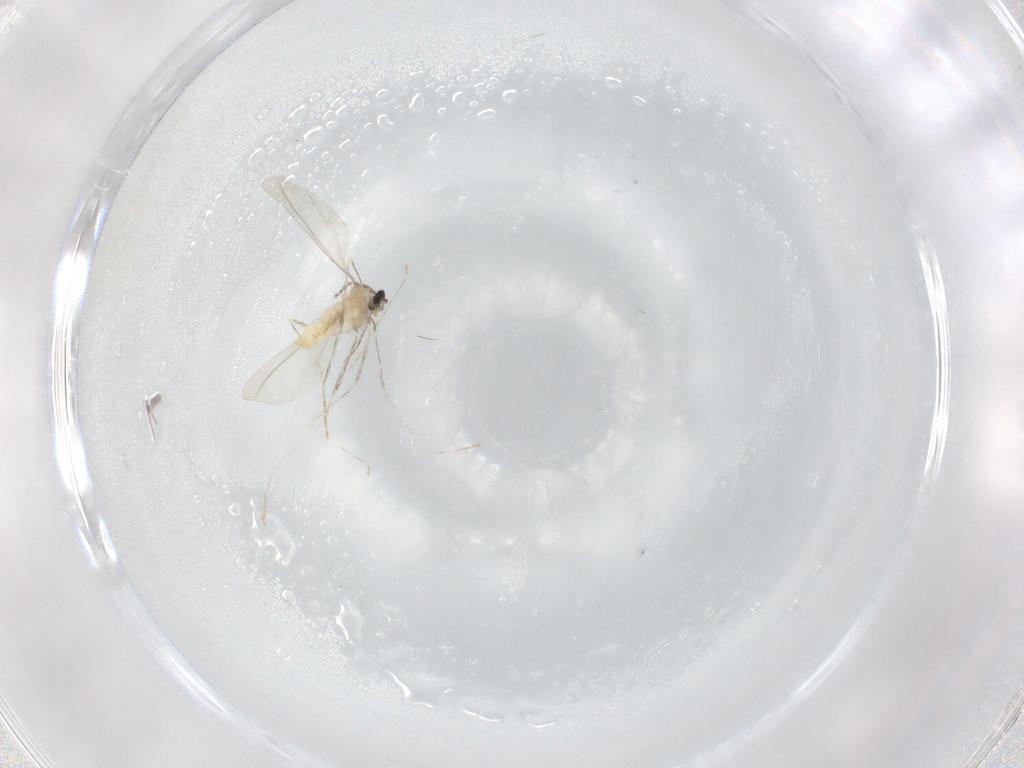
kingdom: Animalia
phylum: Arthropoda
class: Insecta
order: Diptera
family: Cecidomyiidae
